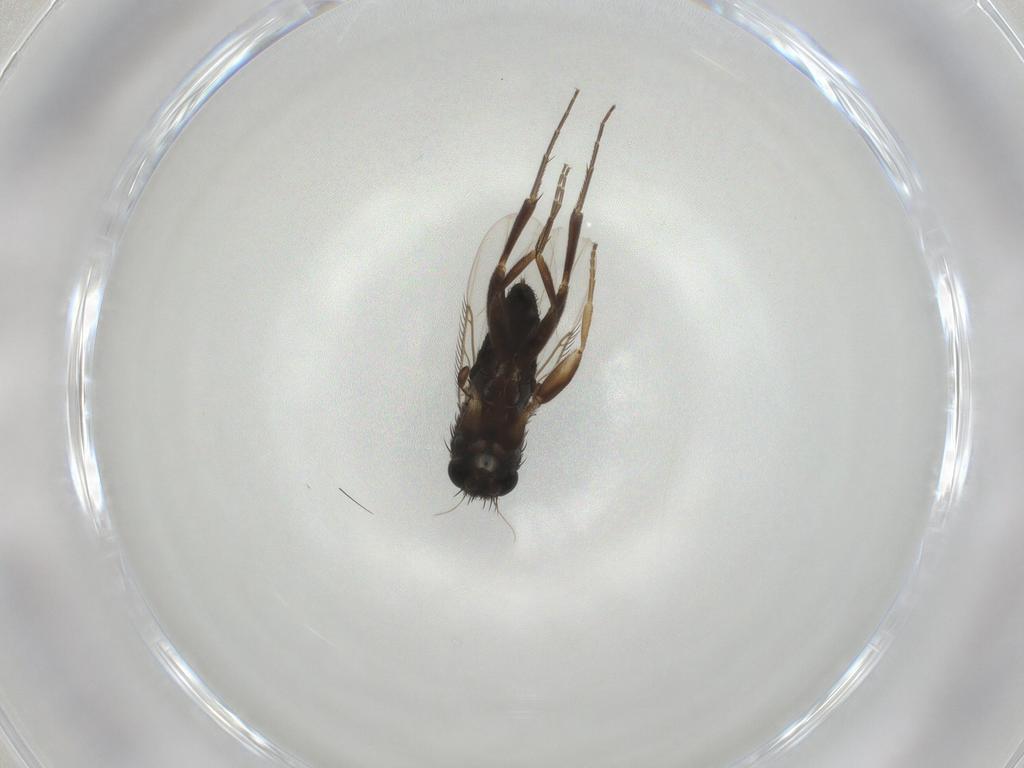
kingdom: Animalia
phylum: Arthropoda
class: Insecta
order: Diptera
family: Phoridae
